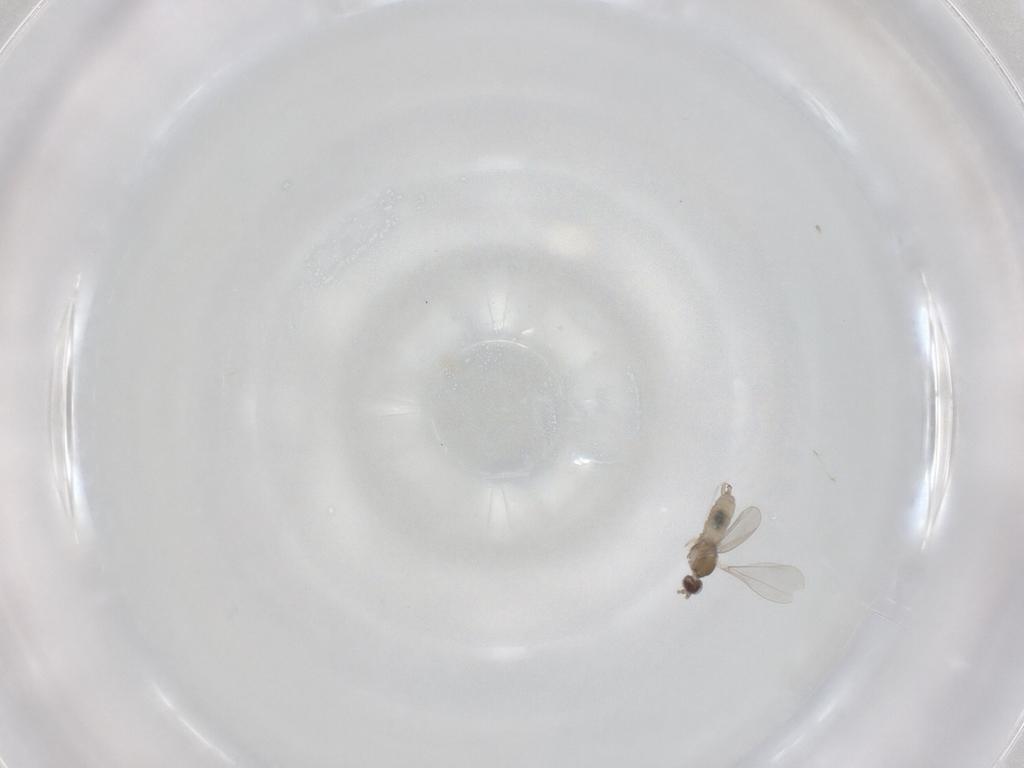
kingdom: Animalia
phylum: Arthropoda
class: Insecta
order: Diptera
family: Cecidomyiidae
